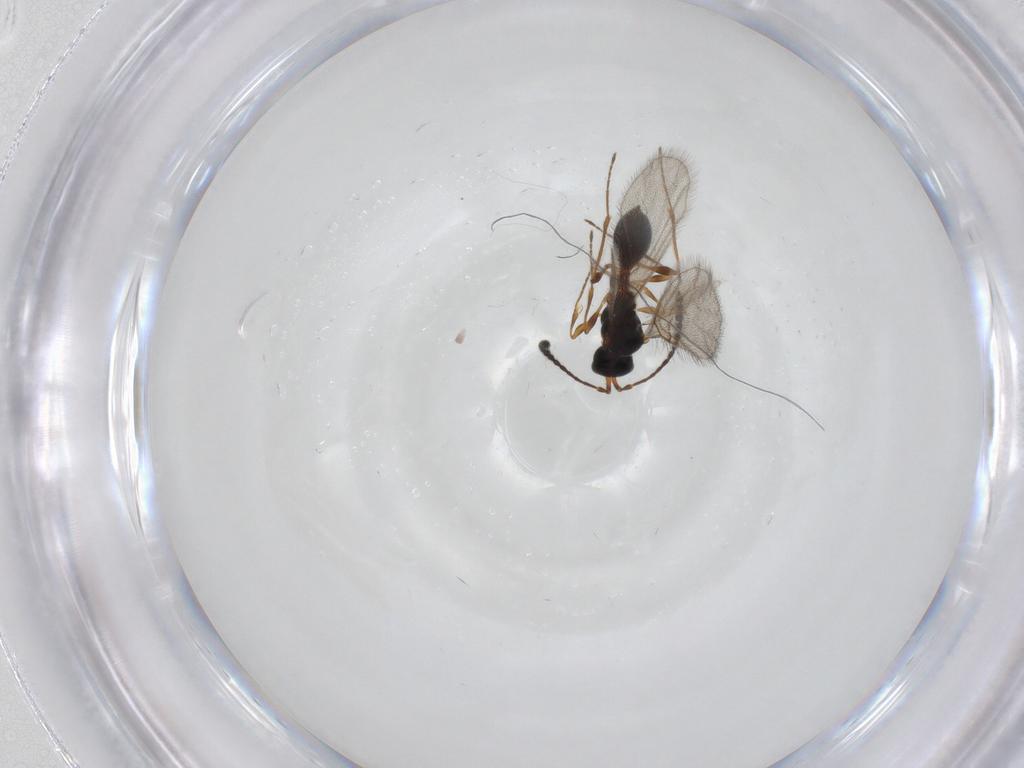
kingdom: Animalia
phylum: Arthropoda
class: Insecta
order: Hymenoptera
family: Diapriidae
